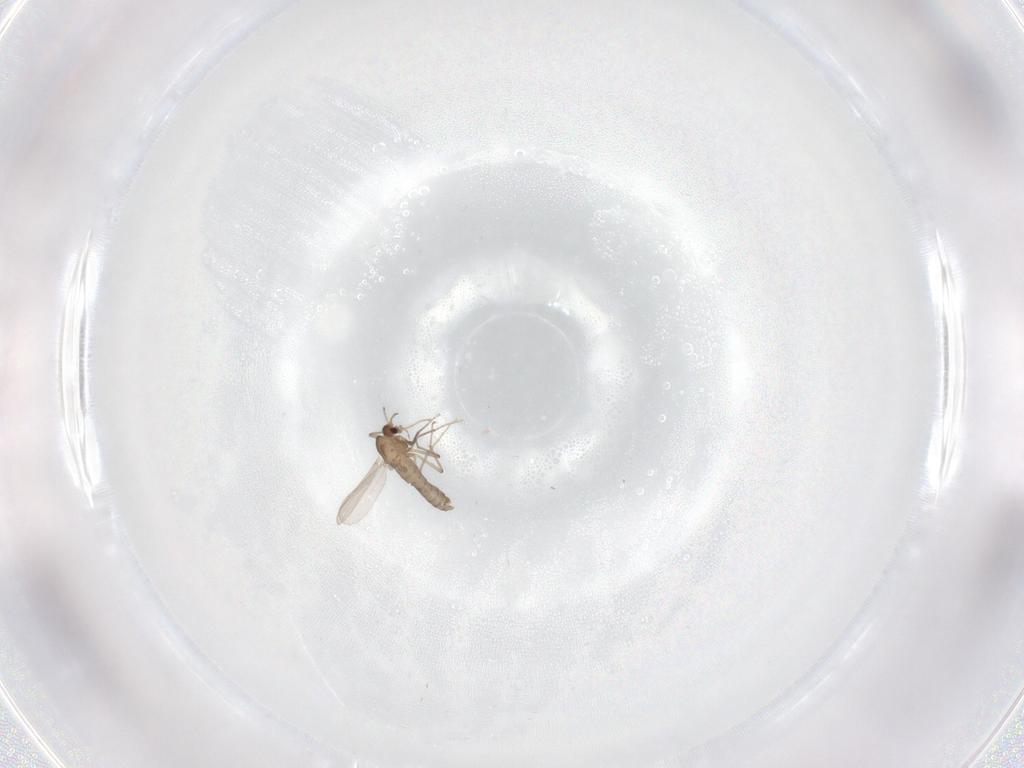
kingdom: Animalia
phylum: Arthropoda
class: Insecta
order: Diptera
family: Chironomidae
